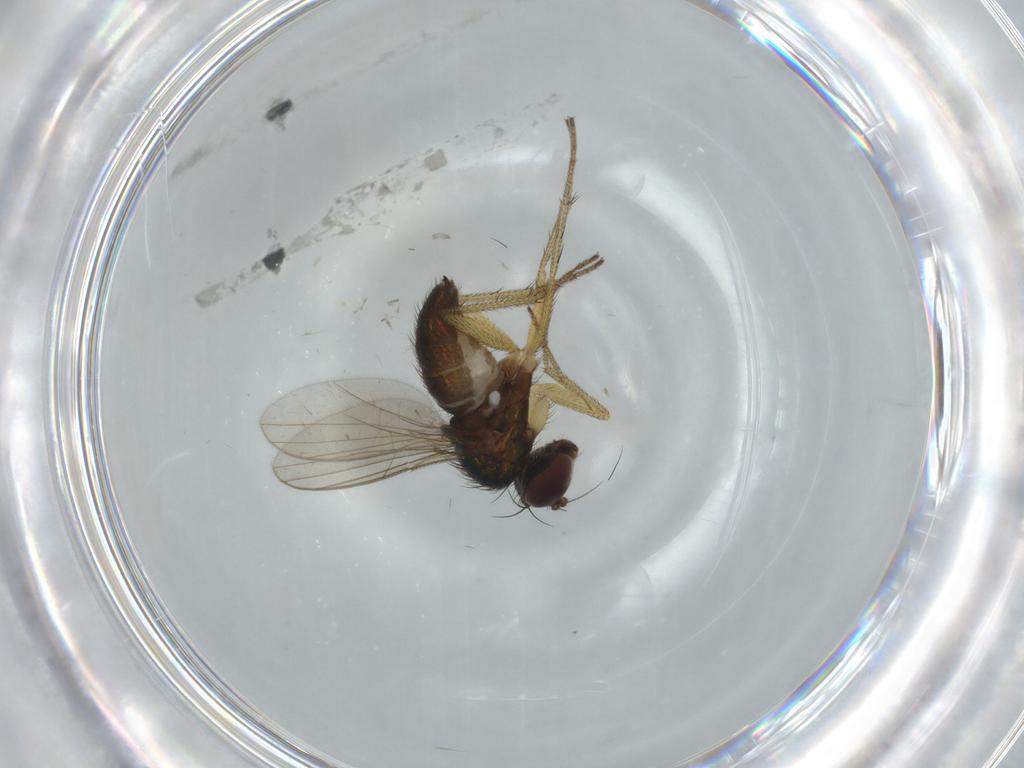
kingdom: Animalia
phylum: Arthropoda
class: Insecta
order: Diptera
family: Dolichopodidae
